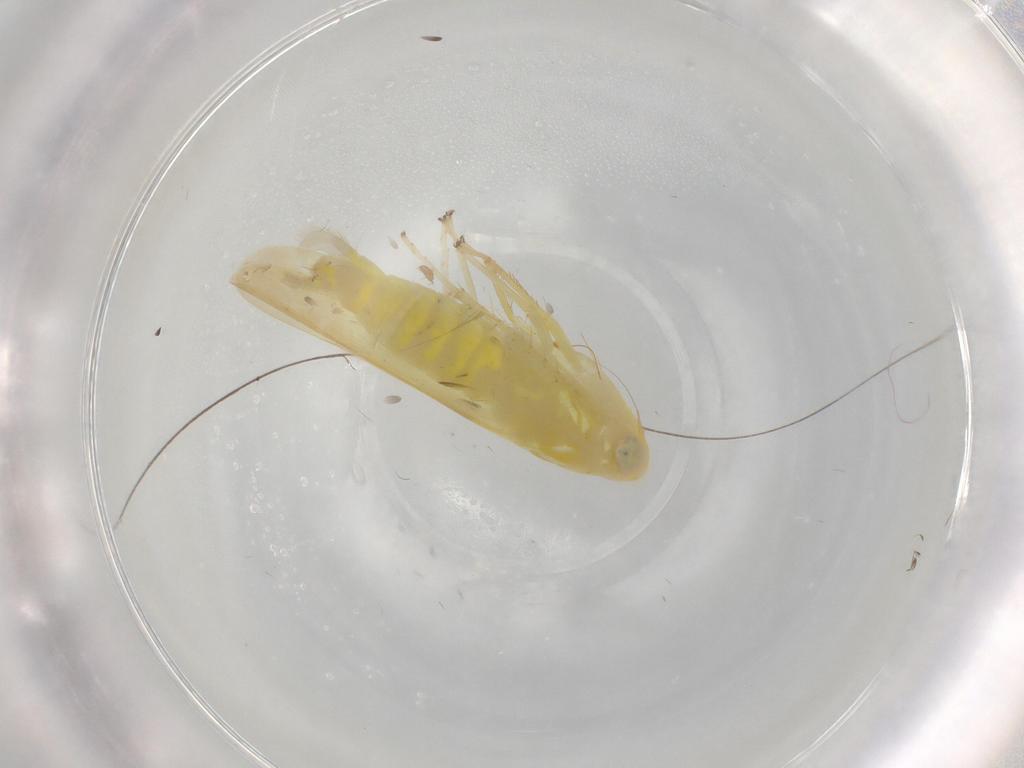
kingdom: Animalia
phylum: Arthropoda
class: Insecta
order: Hemiptera
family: Cicadellidae
